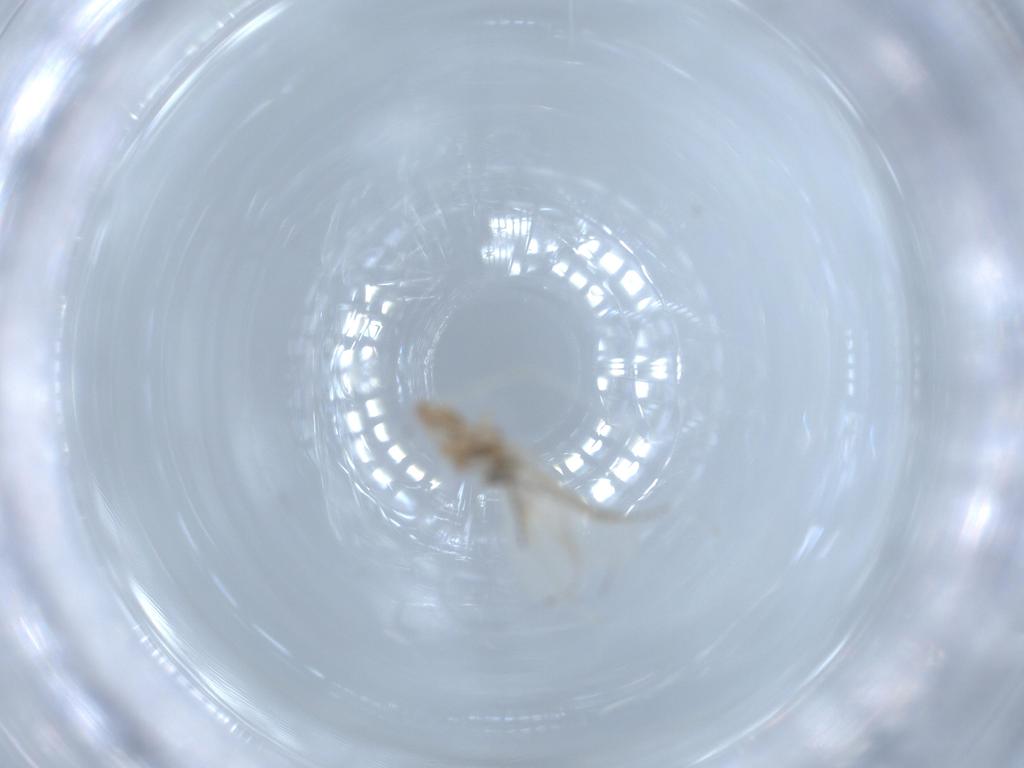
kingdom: Animalia
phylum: Arthropoda
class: Insecta
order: Diptera
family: Cecidomyiidae
